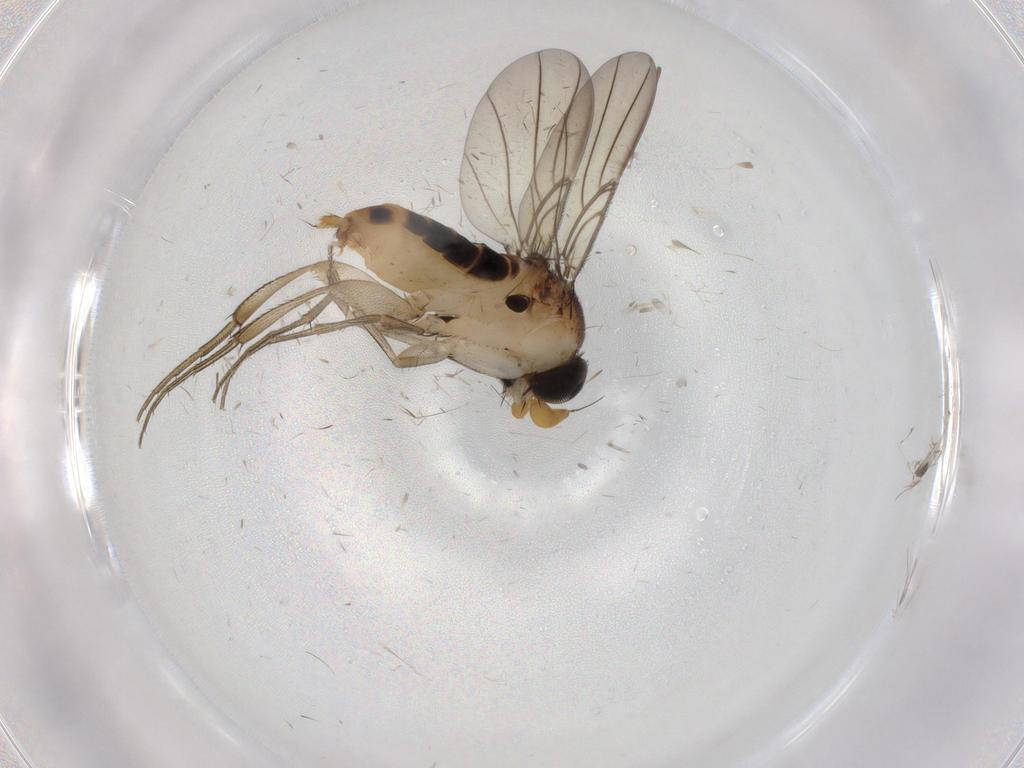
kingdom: Animalia
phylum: Arthropoda
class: Insecta
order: Diptera
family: Phoridae
